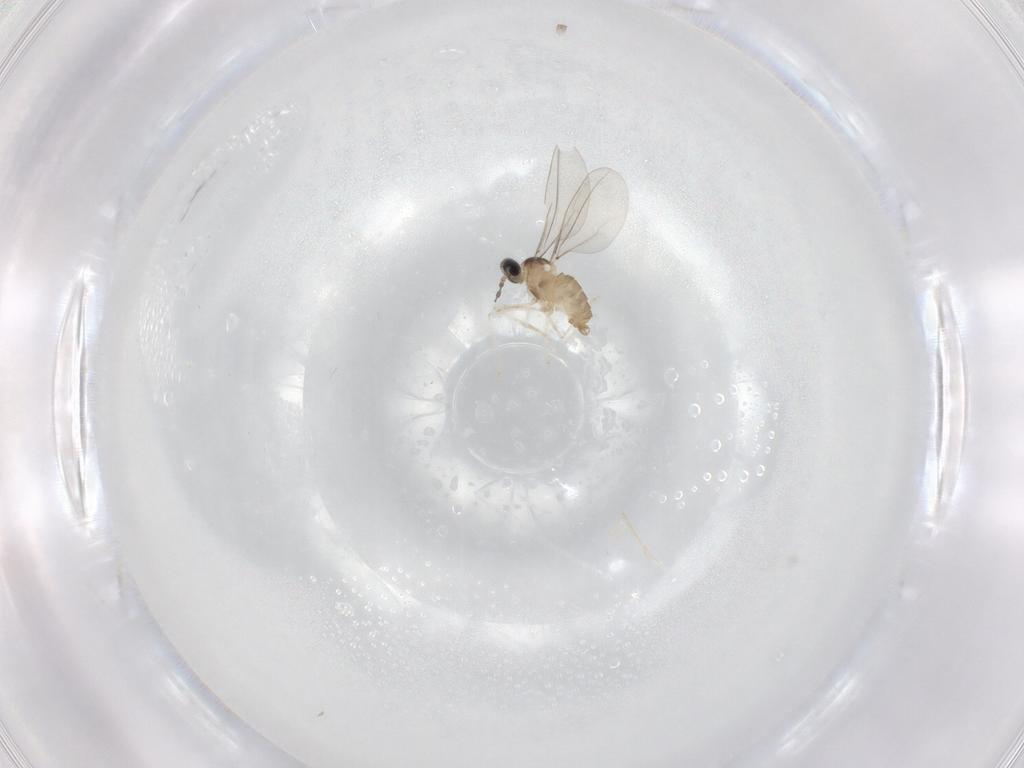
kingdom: Animalia
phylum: Arthropoda
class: Insecta
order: Diptera
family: Cecidomyiidae
